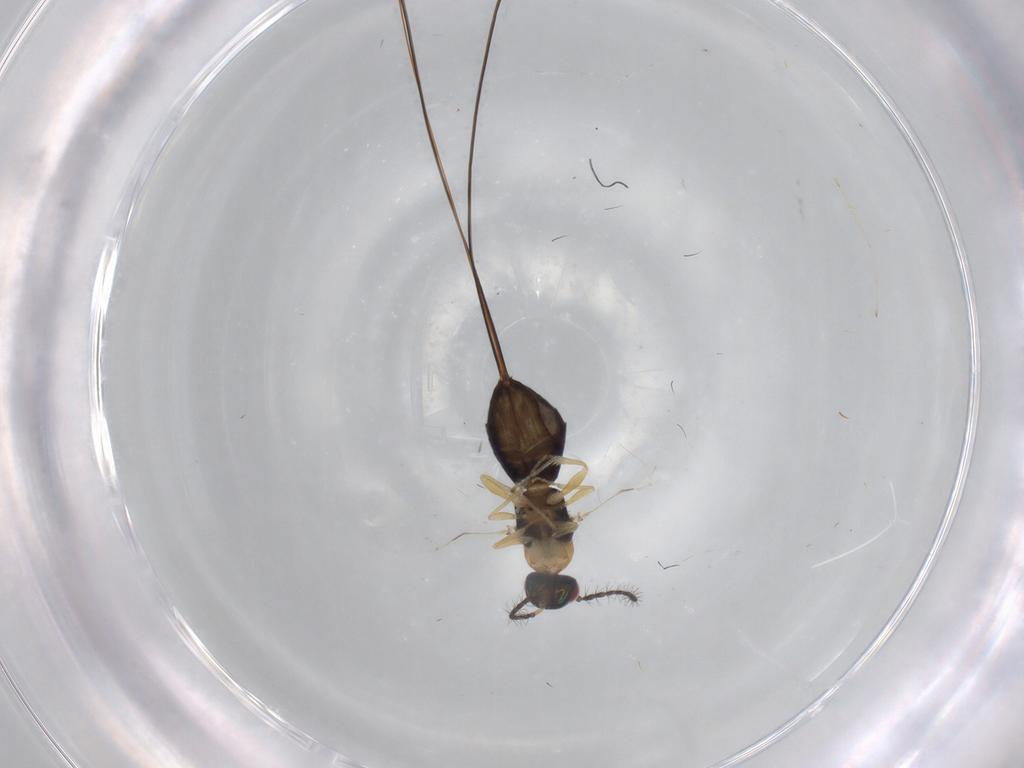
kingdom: Animalia
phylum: Arthropoda
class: Insecta
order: Hymenoptera
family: Agaonidae
